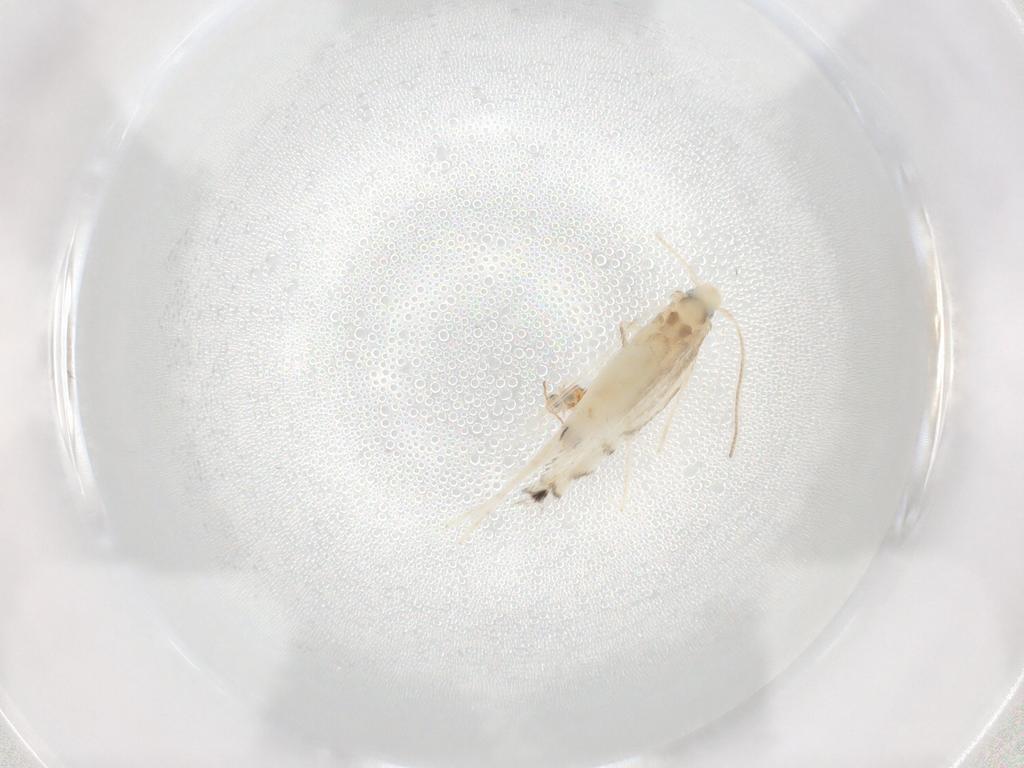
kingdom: Animalia
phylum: Arthropoda
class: Insecta
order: Lepidoptera
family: Gracillariidae
